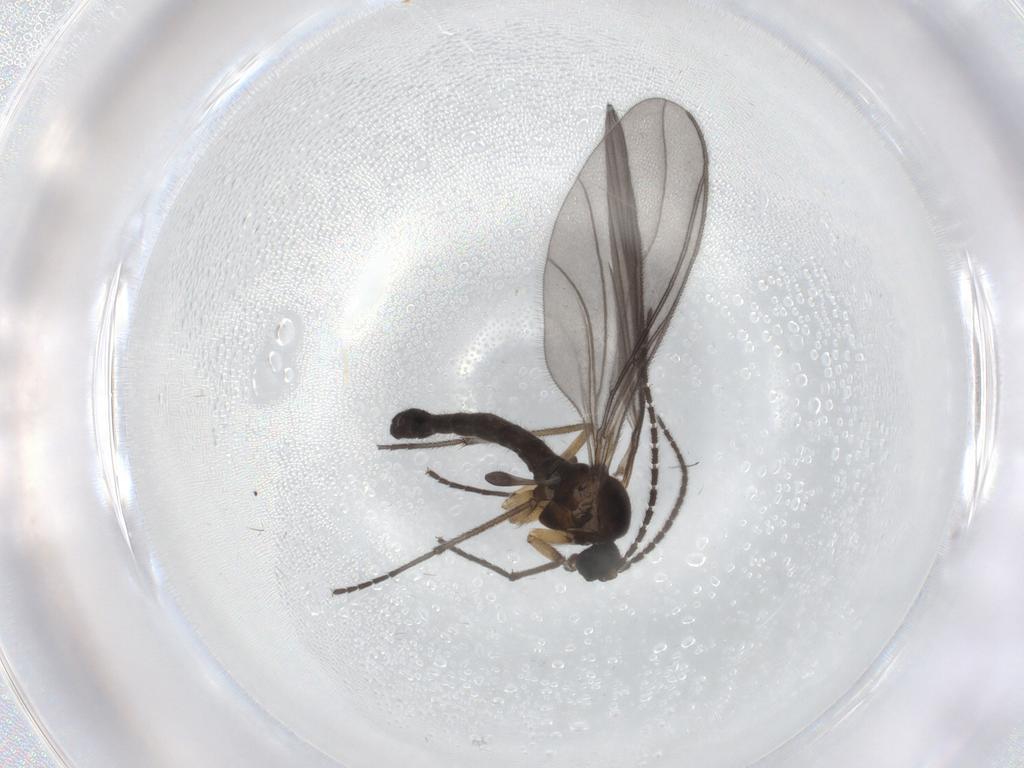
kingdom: Animalia
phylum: Arthropoda
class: Insecta
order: Diptera
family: Sciaridae
